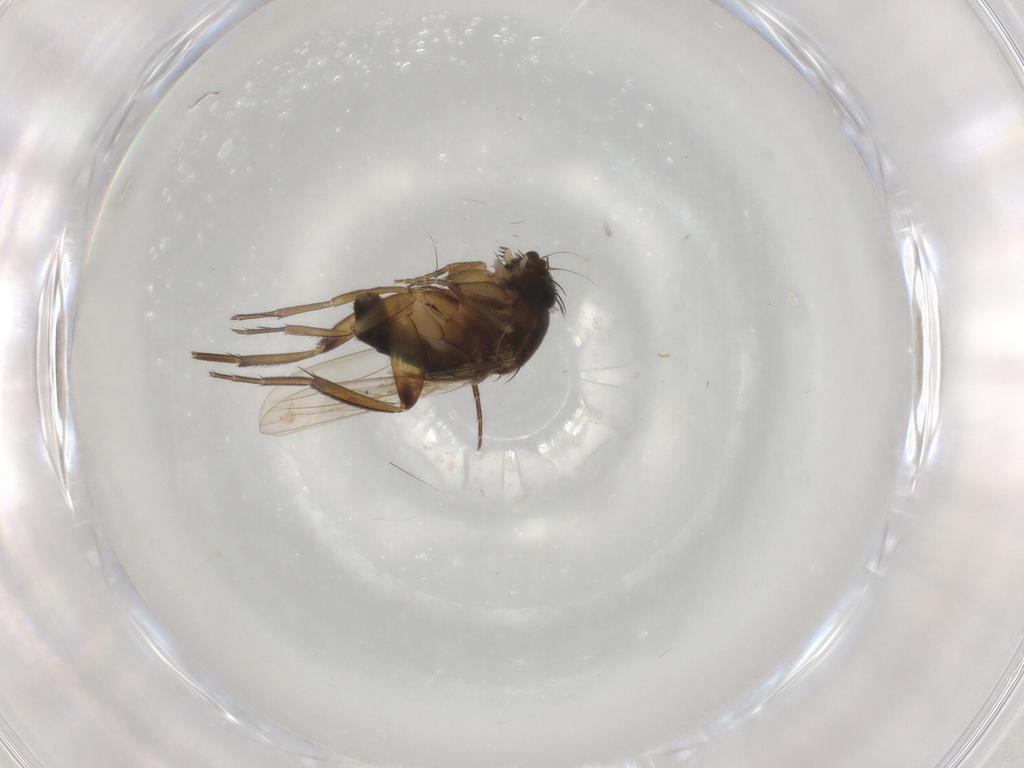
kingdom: Animalia
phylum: Arthropoda
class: Insecta
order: Diptera
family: Phoridae
